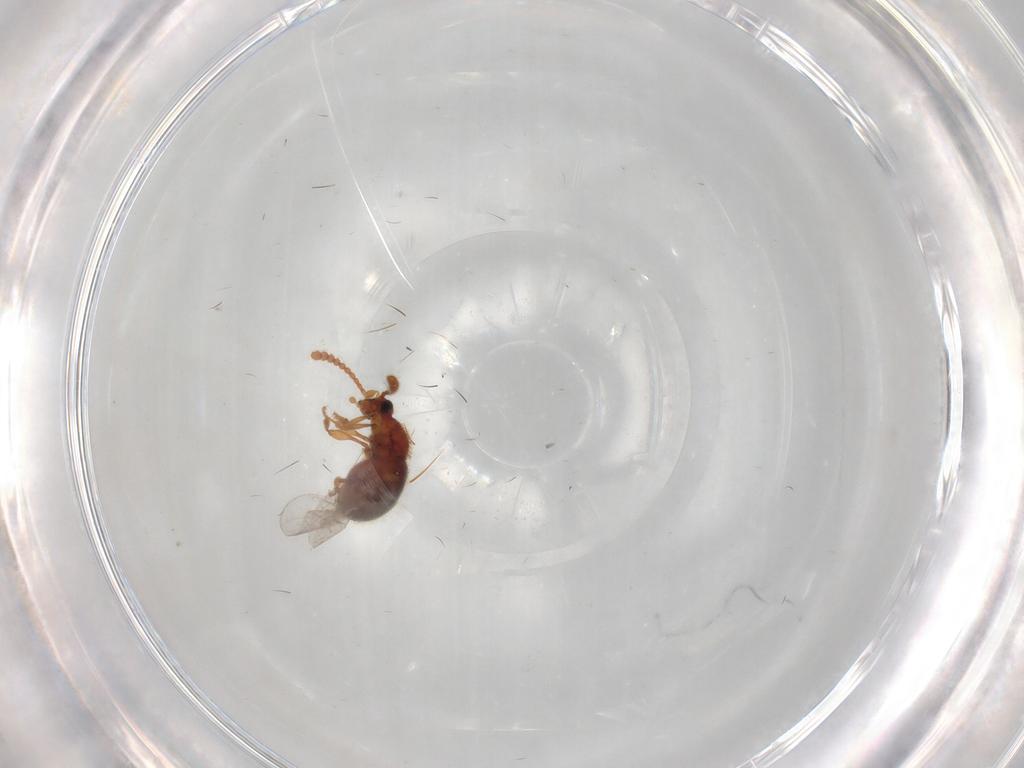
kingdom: Animalia
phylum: Arthropoda
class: Insecta
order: Coleoptera
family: Staphylinidae
